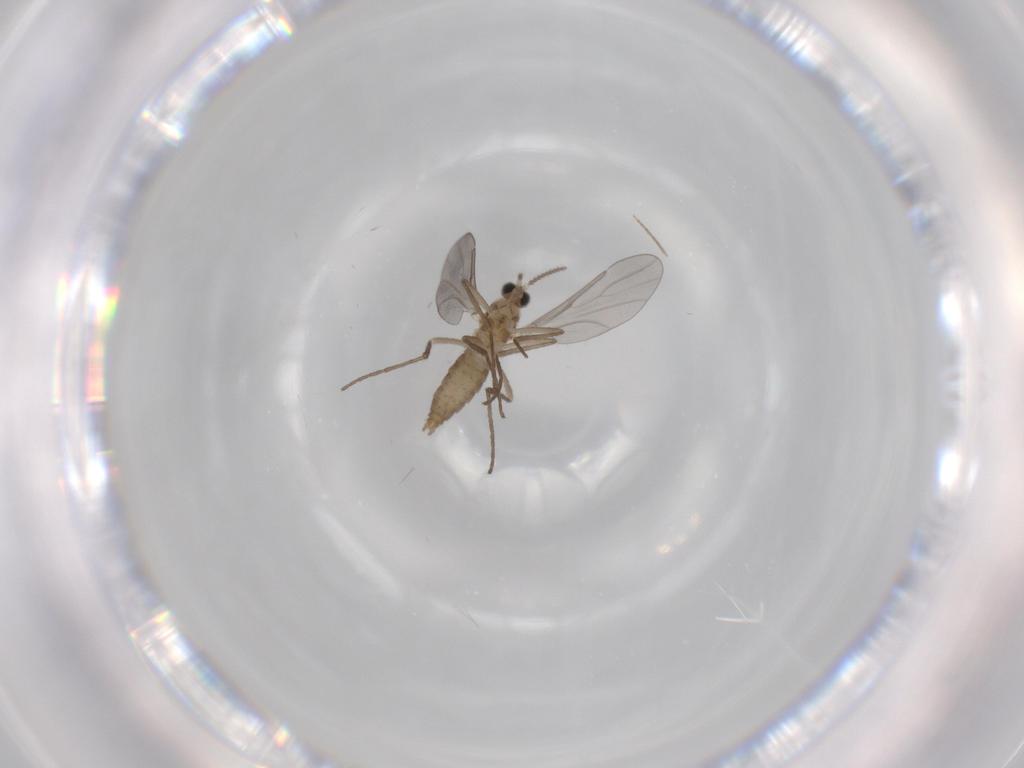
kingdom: Animalia
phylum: Arthropoda
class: Insecta
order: Diptera
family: Cecidomyiidae
